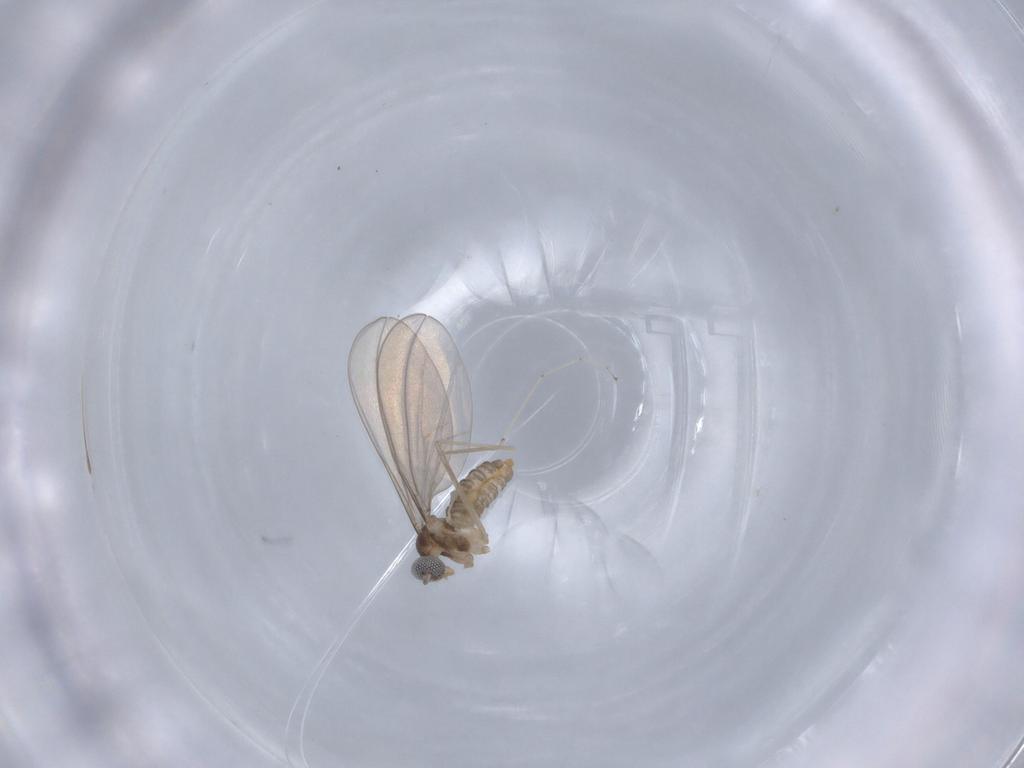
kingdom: Animalia
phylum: Arthropoda
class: Insecta
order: Diptera
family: Cecidomyiidae
